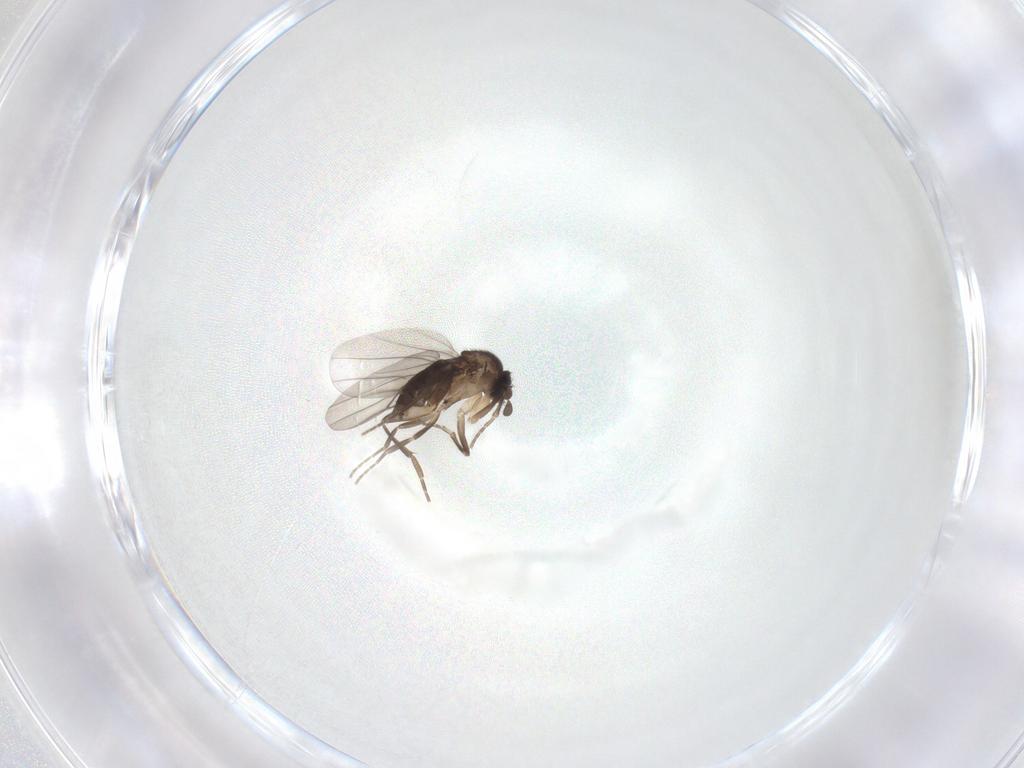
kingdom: Animalia
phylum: Arthropoda
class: Insecta
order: Diptera
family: Phoridae
